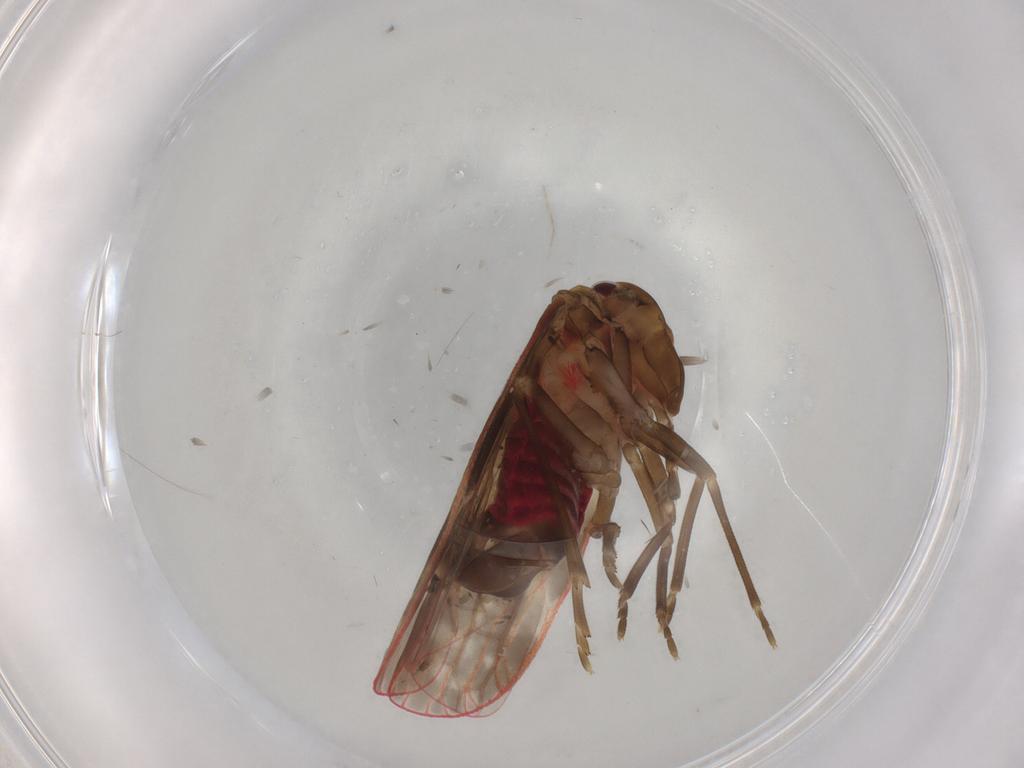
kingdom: Animalia
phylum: Arthropoda
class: Insecta
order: Hemiptera
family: Achilidae
